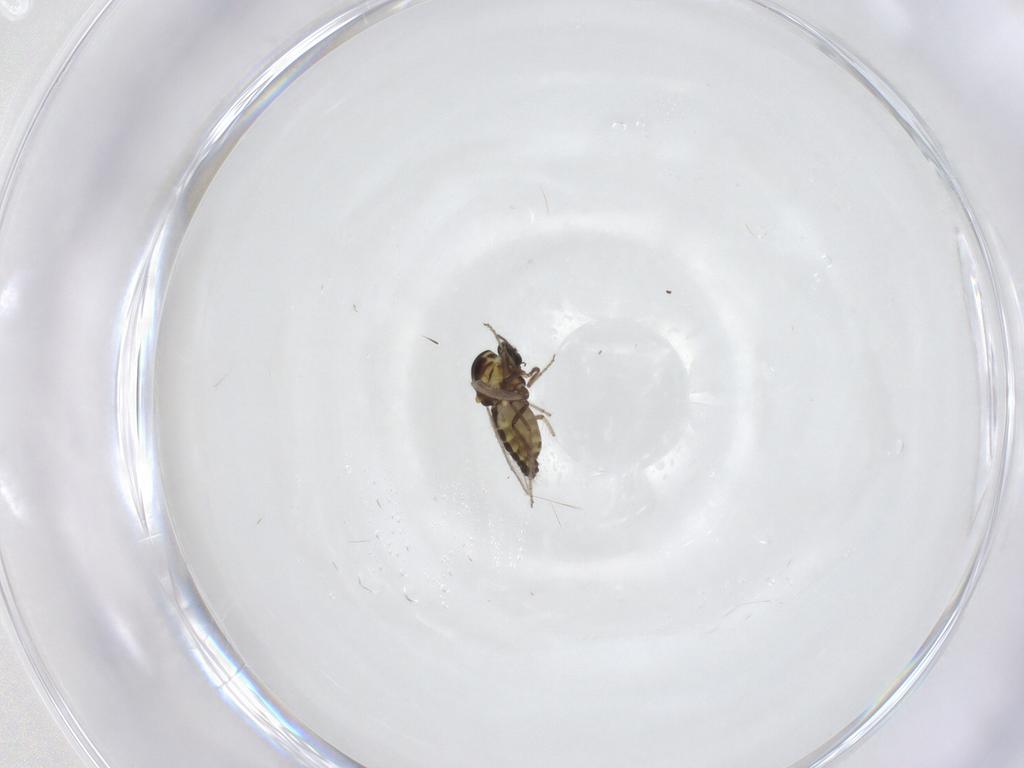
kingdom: Animalia
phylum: Arthropoda
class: Insecta
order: Diptera
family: Ceratopogonidae
